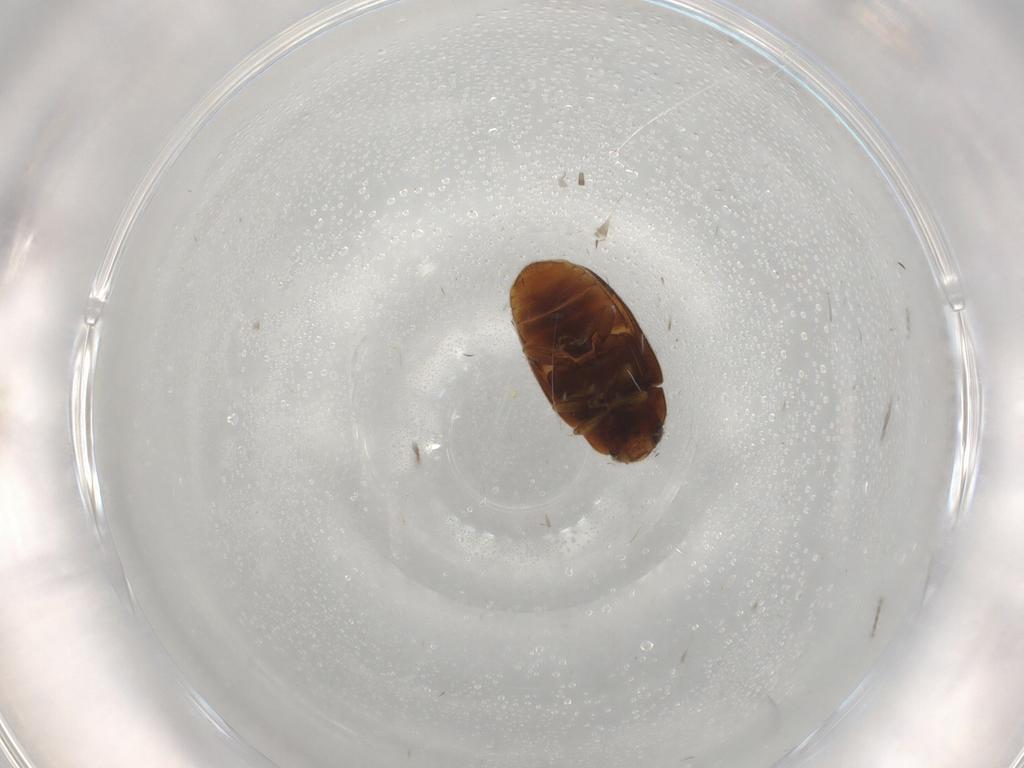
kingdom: Animalia
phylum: Arthropoda
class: Insecta
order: Coleoptera
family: Coccinellidae
